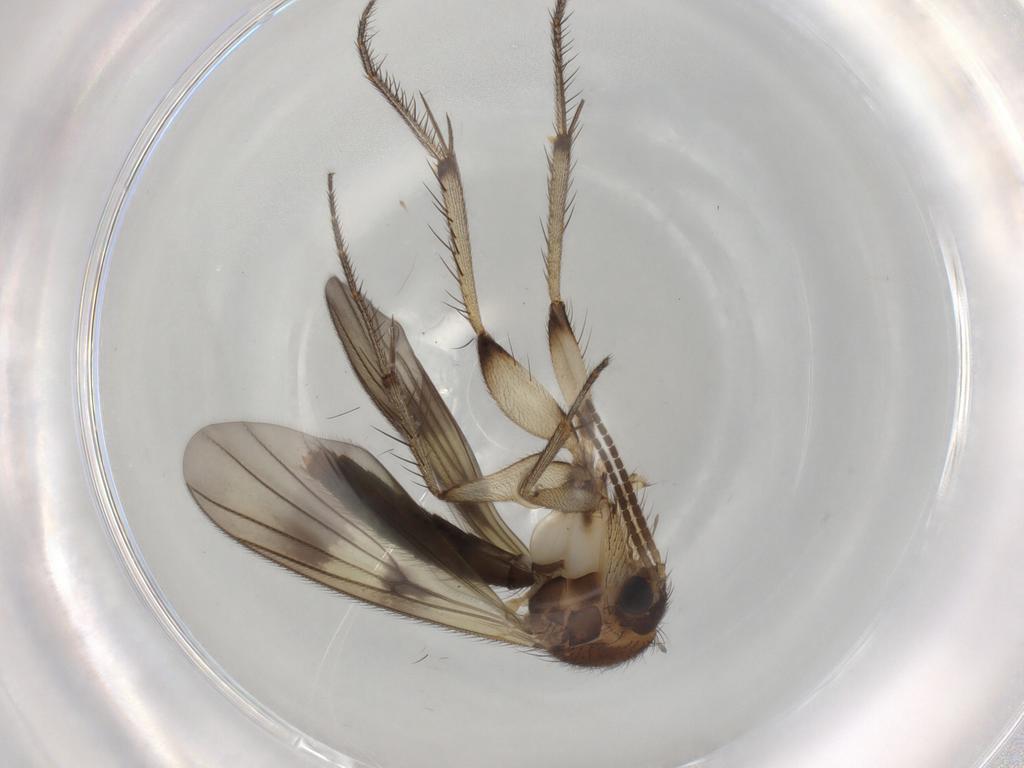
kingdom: Animalia
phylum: Arthropoda
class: Insecta
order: Diptera
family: Sciaridae
